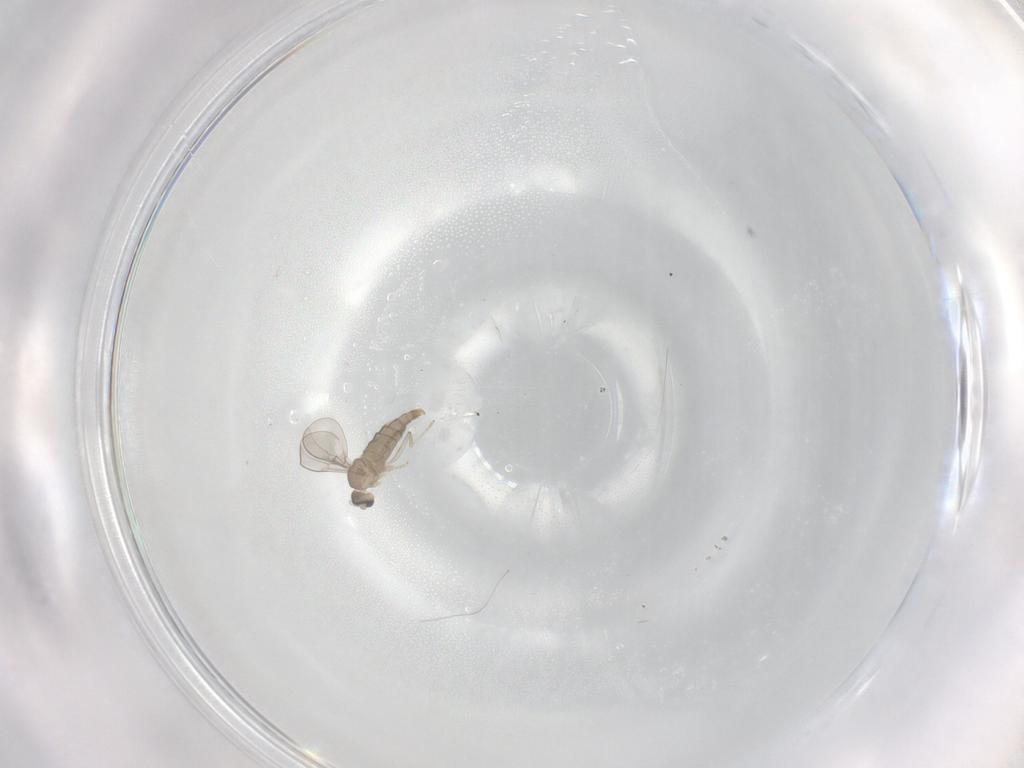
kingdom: Animalia
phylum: Arthropoda
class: Insecta
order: Diptera
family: Cecidomyiidae
